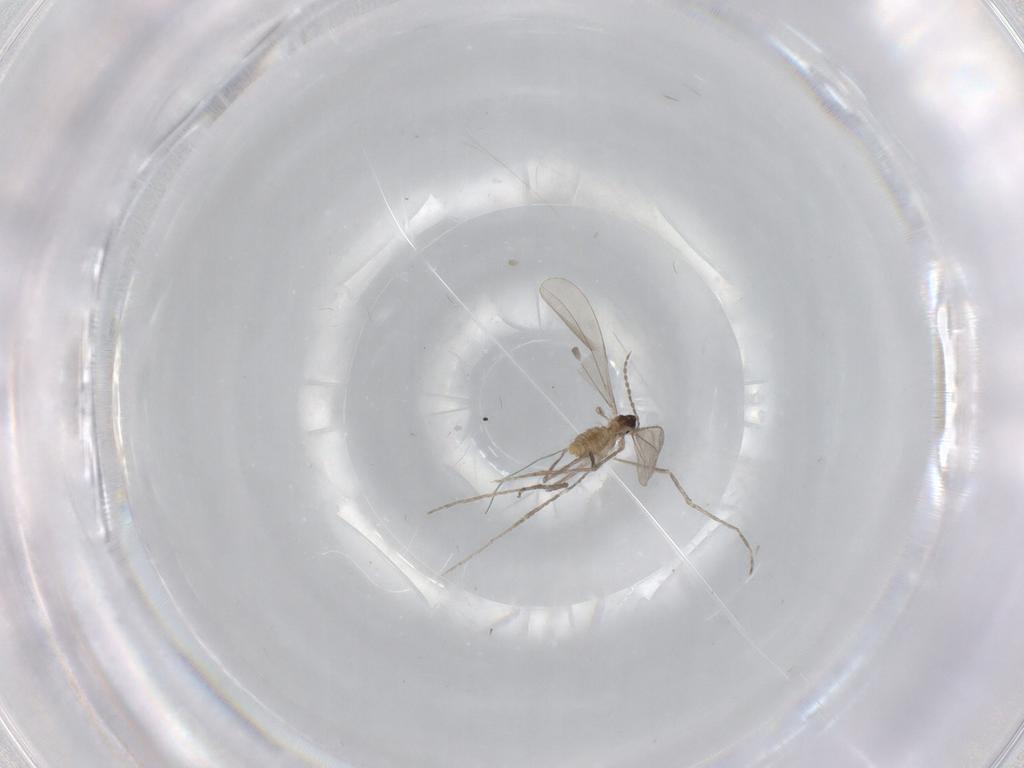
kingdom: Animalia
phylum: Arthropoda
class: Insecta
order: Diptera
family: Cecidomyiidae
